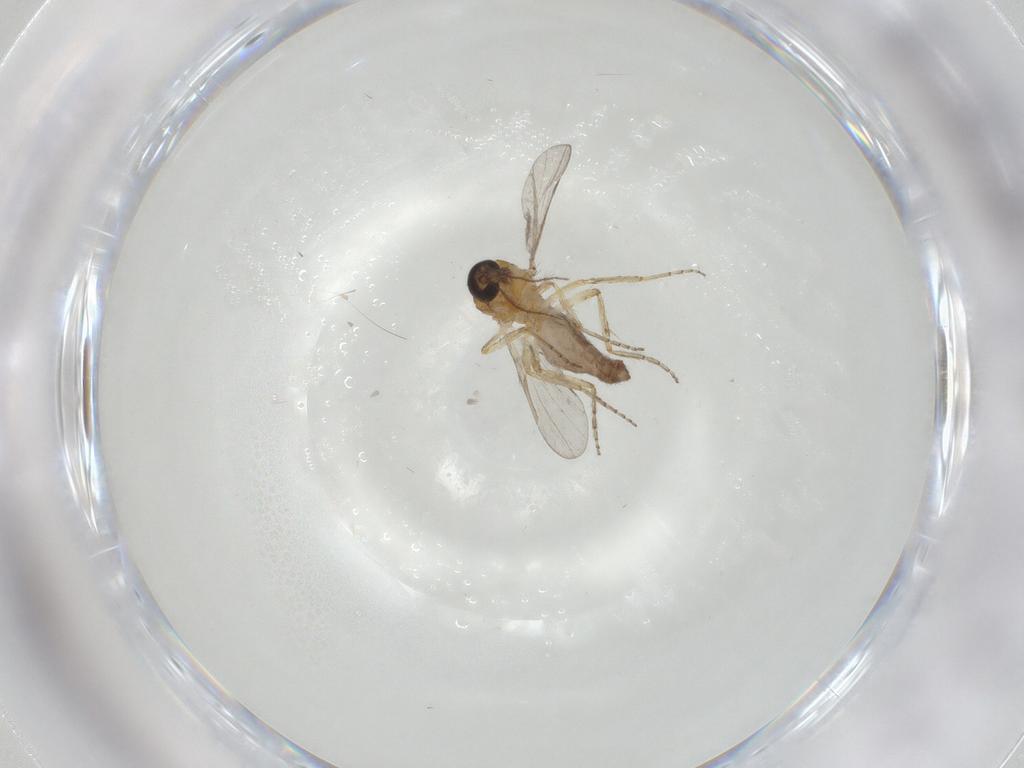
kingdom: Animalia
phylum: Arthropoda
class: Insecta
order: Diptera
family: Ceratopogonidae
